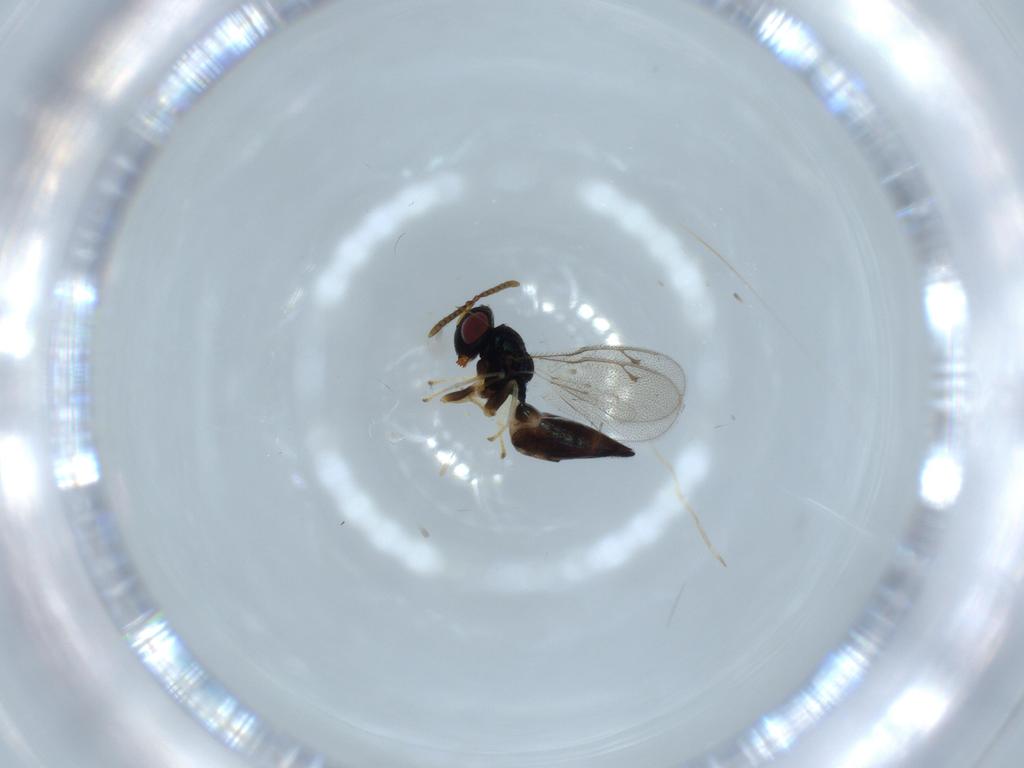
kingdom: Animalia
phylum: Arthropoda
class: Insecta
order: Hymenoptera
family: Pteromalidae
